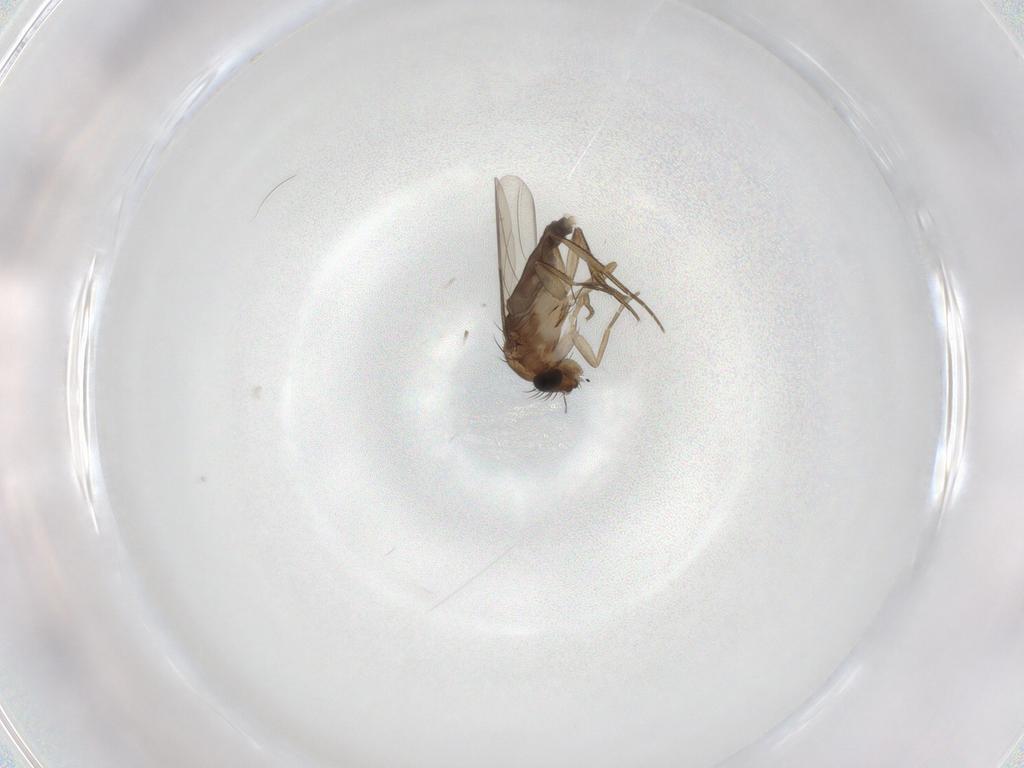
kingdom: Animalia
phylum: Arthropoda
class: Insecta
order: Diptera
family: Phoridae
